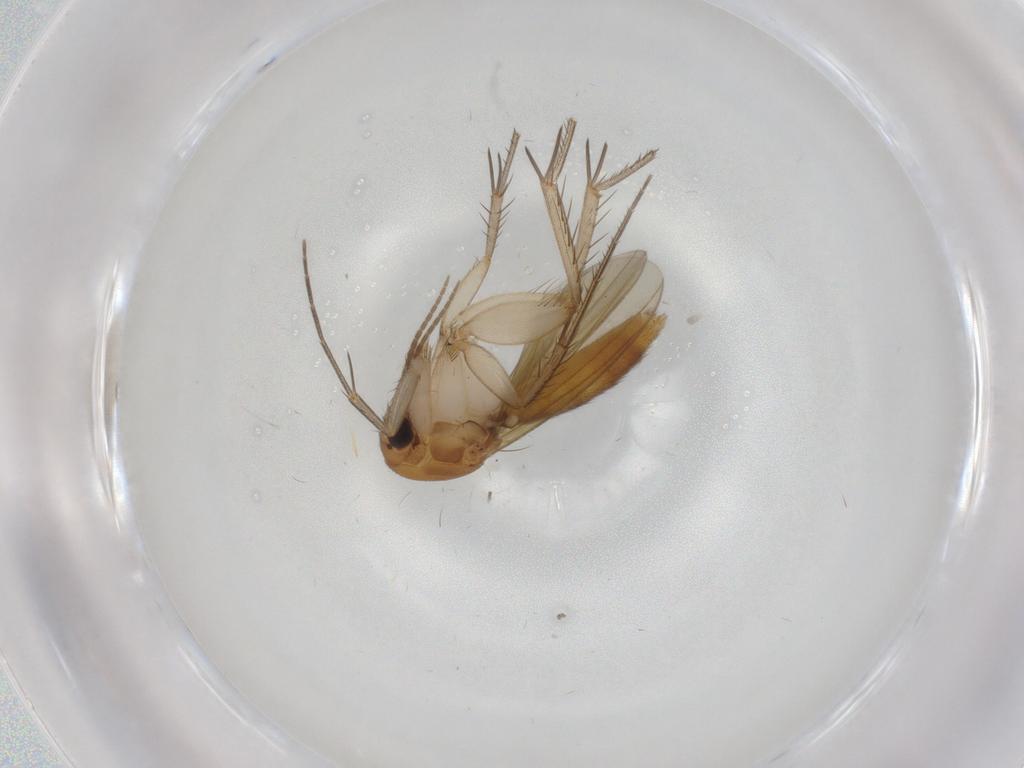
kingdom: Animalia
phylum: Arthropoda
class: Insecta
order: Diptera
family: Sciaridae
